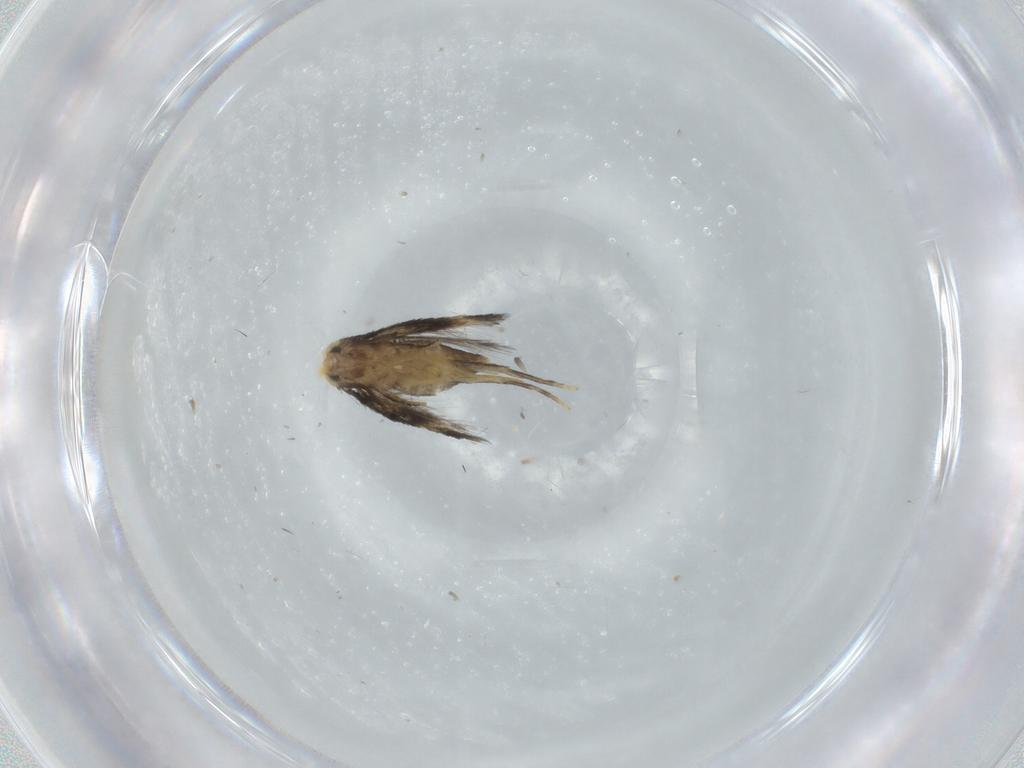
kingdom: Animalia
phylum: Arthropoda
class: Insecta
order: Lepidoptera
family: Nepticulidae
